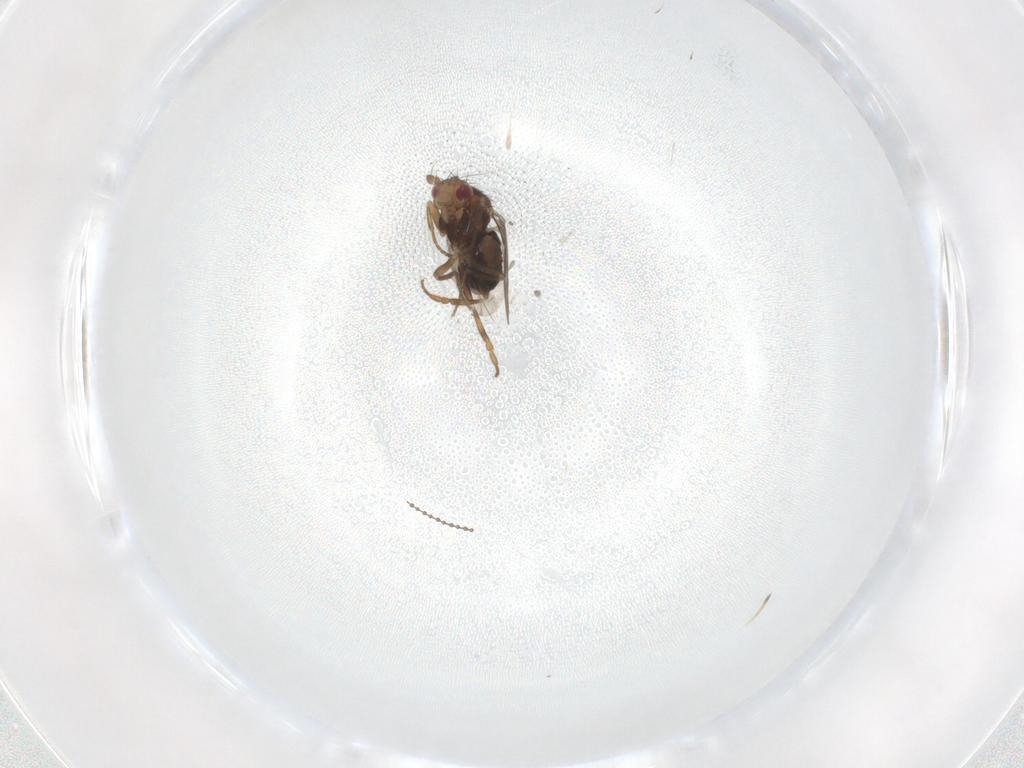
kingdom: Animalia
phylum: Arthropoda
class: Insecta
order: Diptera
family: Sphaeroceridae
